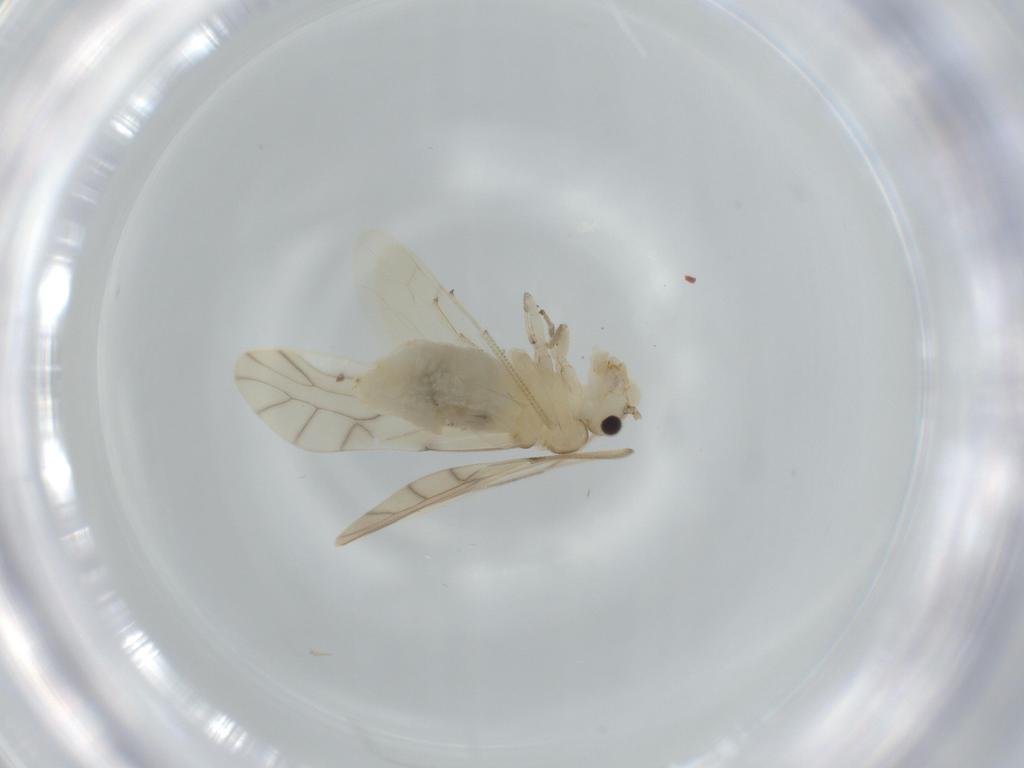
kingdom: Animalia
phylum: Arthropoda
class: Insecta
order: Psocodea
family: Caeciliusidae
